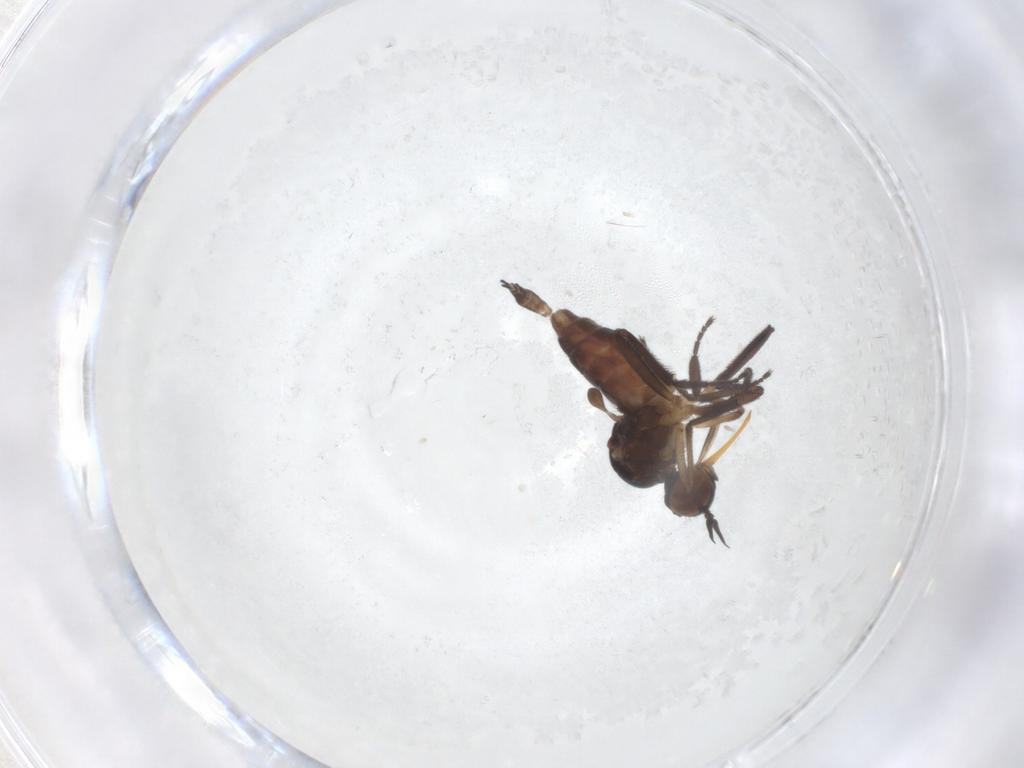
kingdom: Animalia
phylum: Arthropoda
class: Insecta
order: Diptera
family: Empididae
